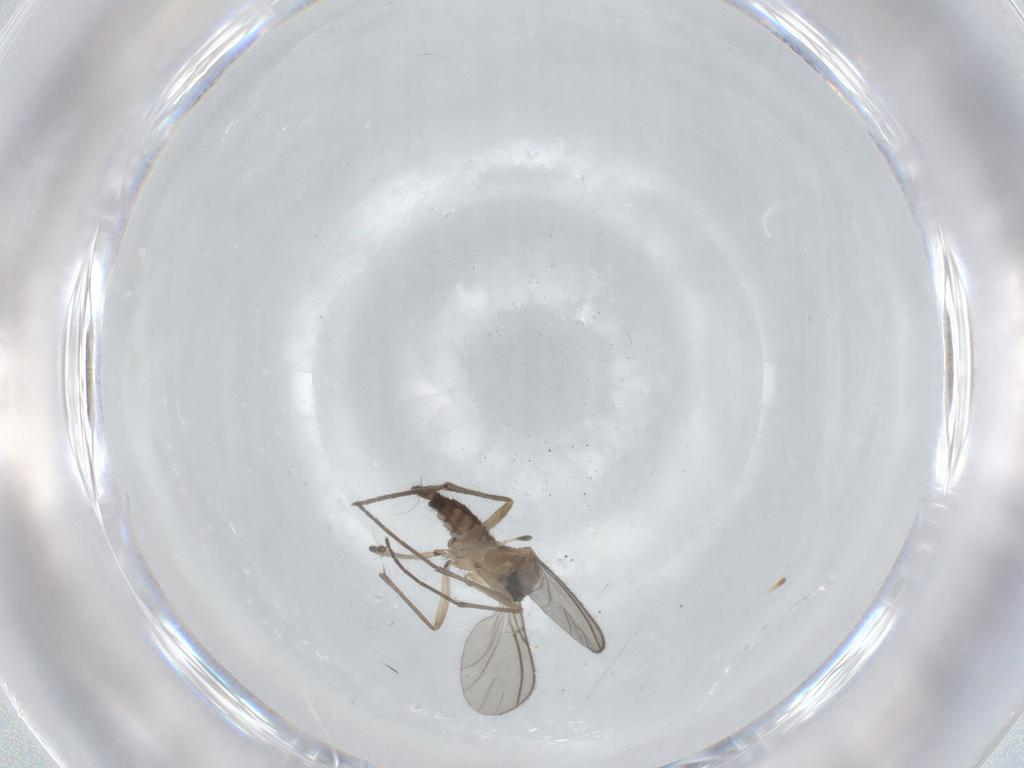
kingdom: Animalia
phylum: Arthropoda
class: Insecta
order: Diptera
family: Sciaridae
